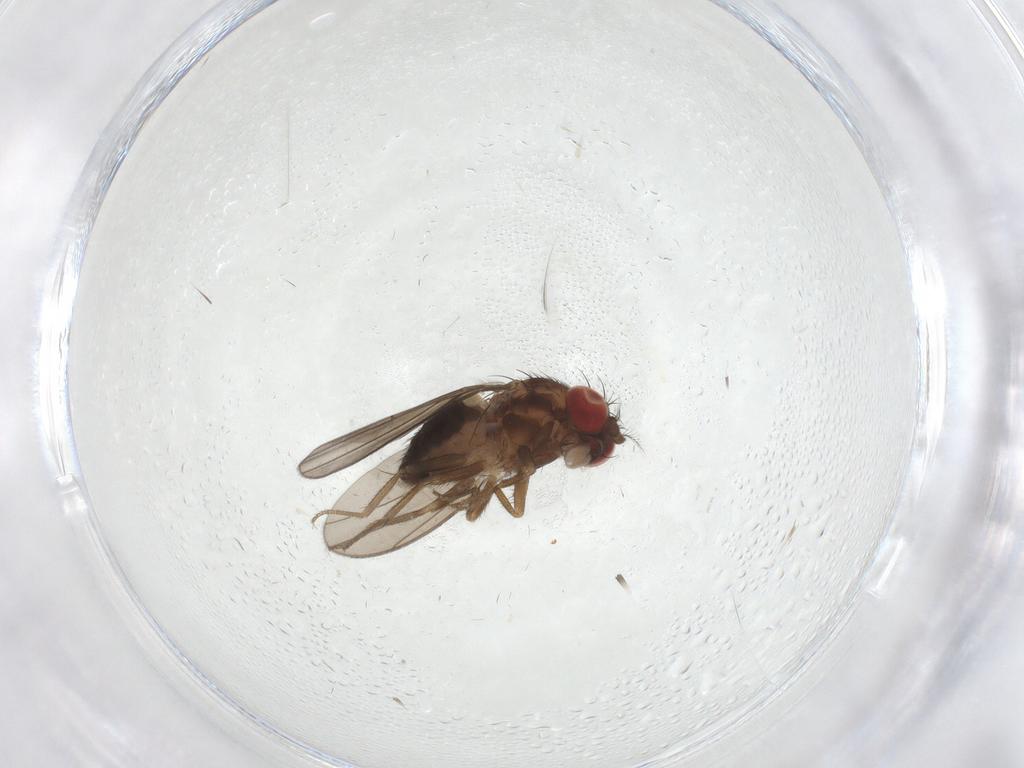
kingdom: Animalia
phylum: Arthropoda
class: Insecta
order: Diptera
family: Drosophilidae
